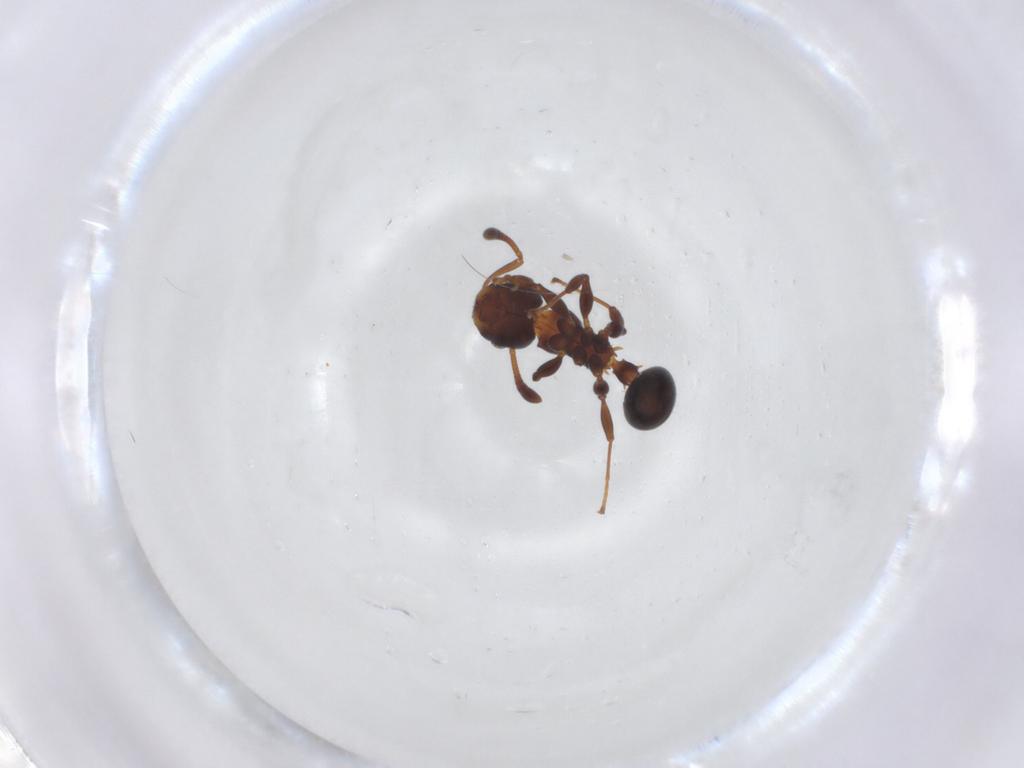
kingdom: Animalia
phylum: Arthropoda
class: Insecta
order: Hymenoptera
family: Formicidae
